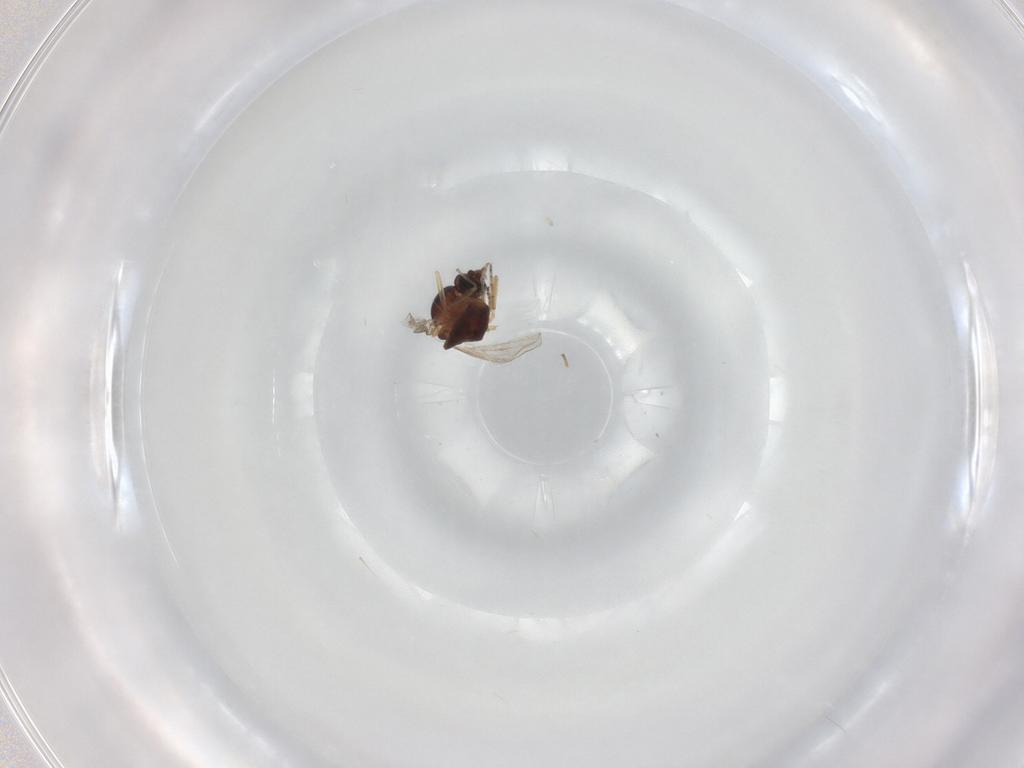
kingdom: Animalia
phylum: Arthropoda
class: Insecta
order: Diptera
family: Ceratopogonidae
